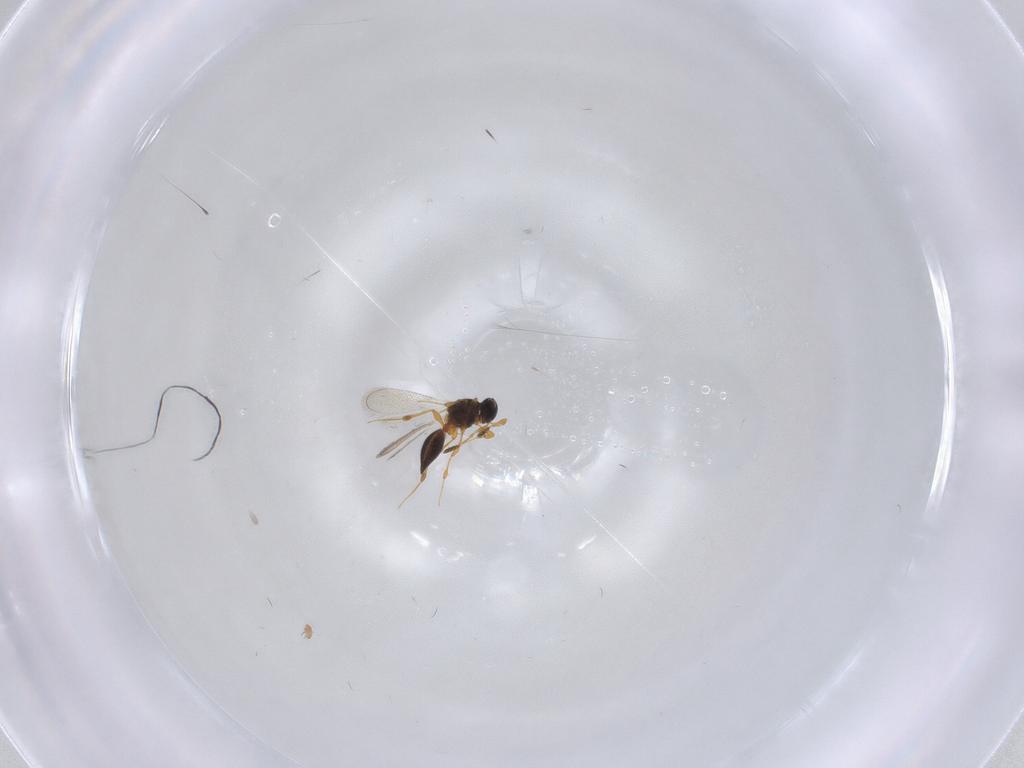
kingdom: Animalia
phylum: Arthropoda
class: Insecta
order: Hymenoptera
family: Platygastridae
